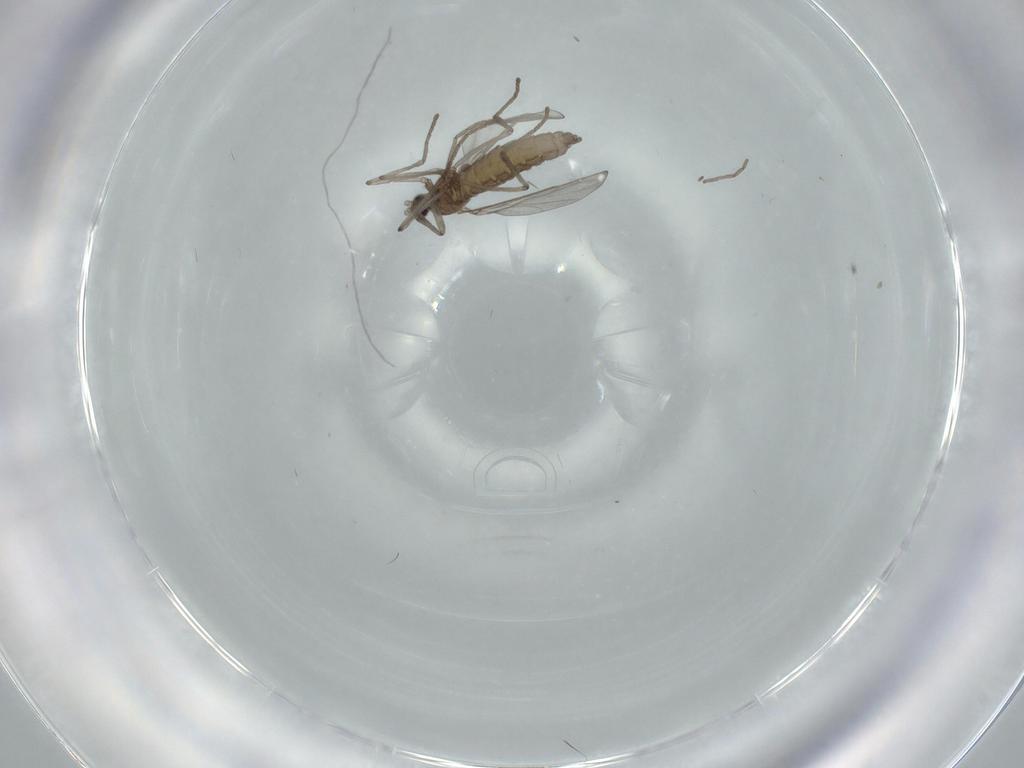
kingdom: Animalia
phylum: Arthropoda
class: Insecta
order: Diptera
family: Cecidomyiidae
